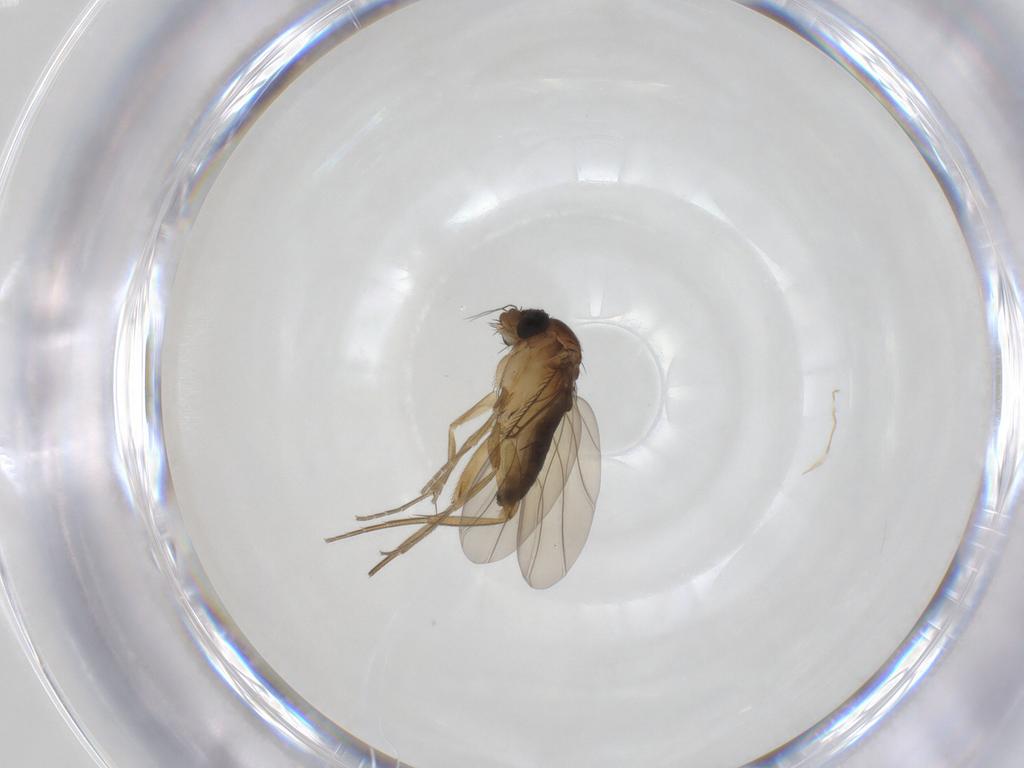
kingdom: Animalia
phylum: Arthropoda
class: Insecta
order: Diptera
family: Phoridae
